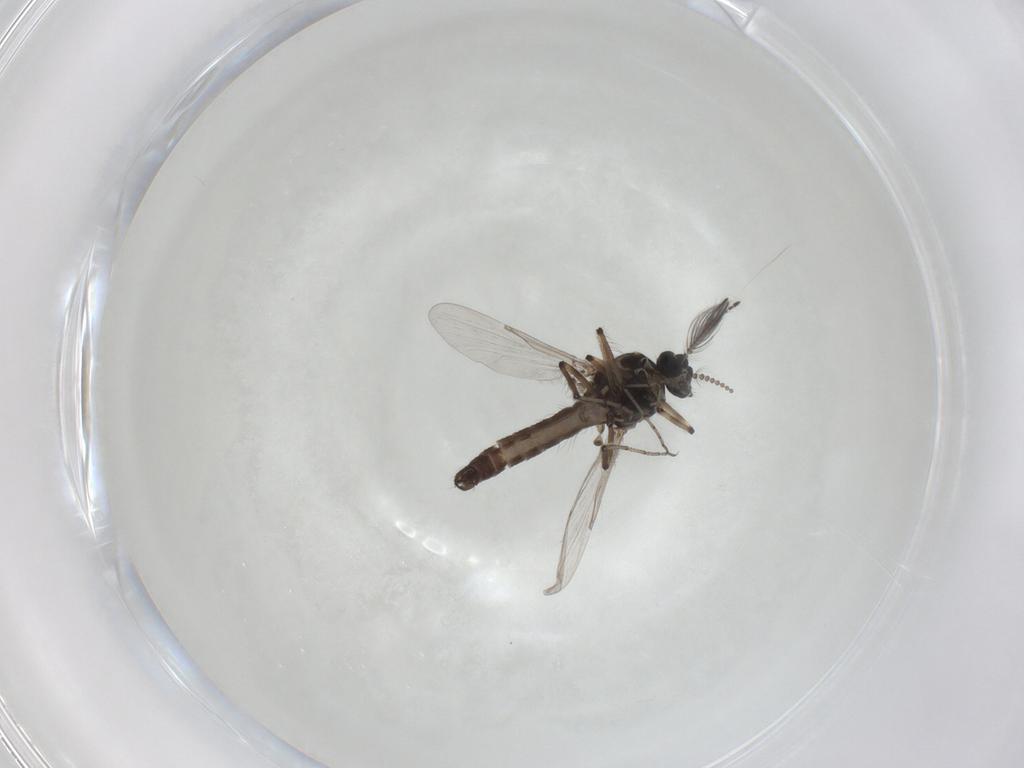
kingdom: Animalia
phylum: Arthropoda
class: Insecta
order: Diptera
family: Ceratopogonidae
